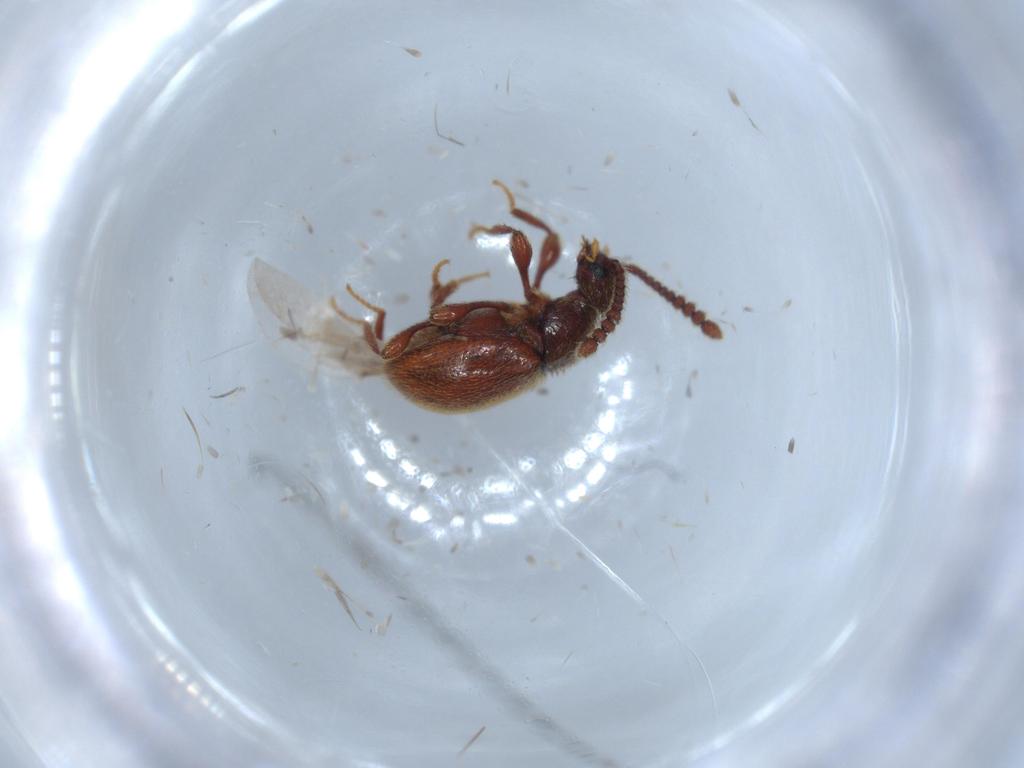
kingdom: Animalia
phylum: Arthropoda
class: Insecta
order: Coleoptera
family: Staphylinidae
